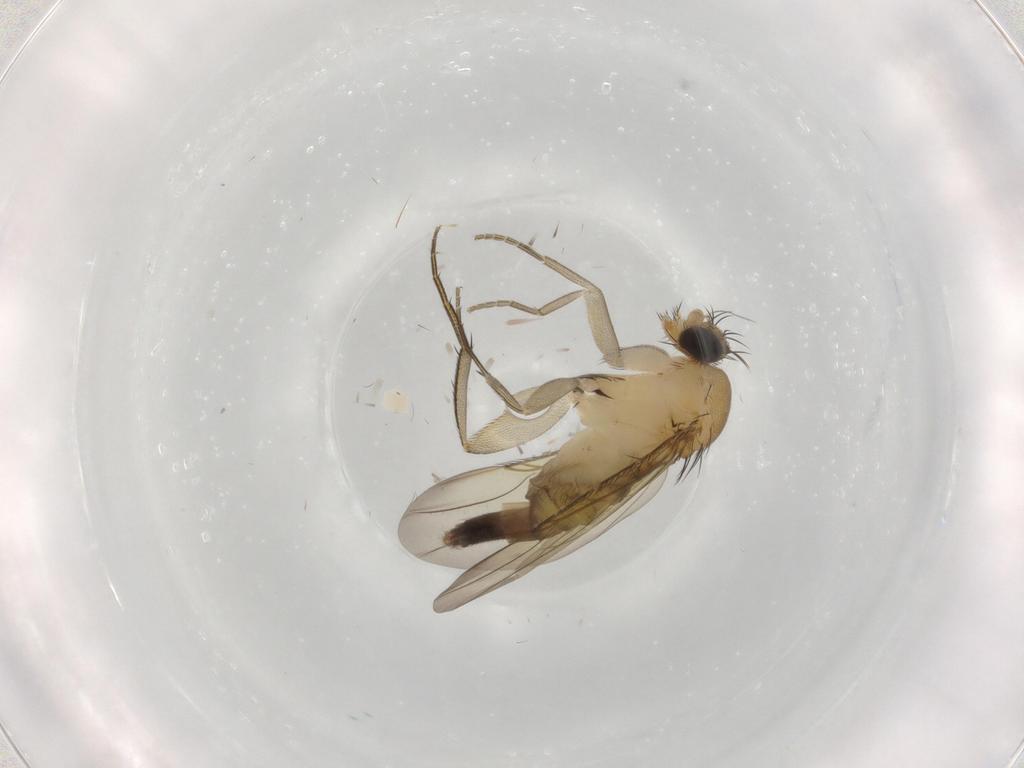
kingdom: Animalia
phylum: Arthropoda
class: Insecta
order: Diptera
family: Phoridae
